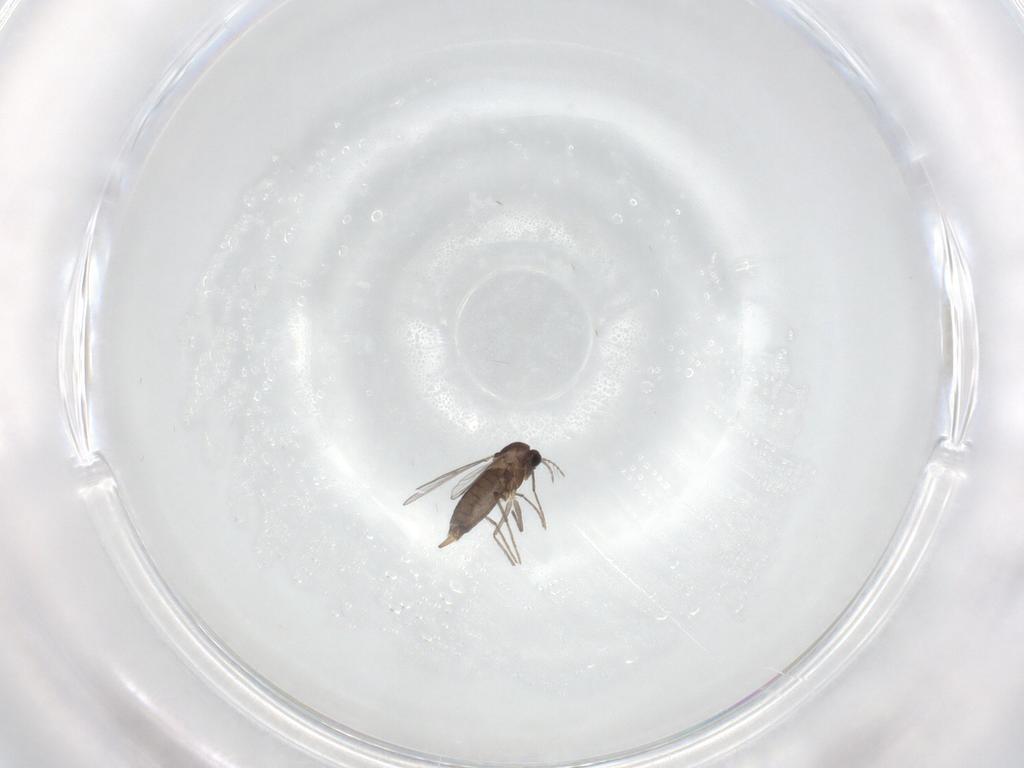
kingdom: Animalia
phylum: Arthropoda
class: Insecta
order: Diptera
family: Chironomidae
